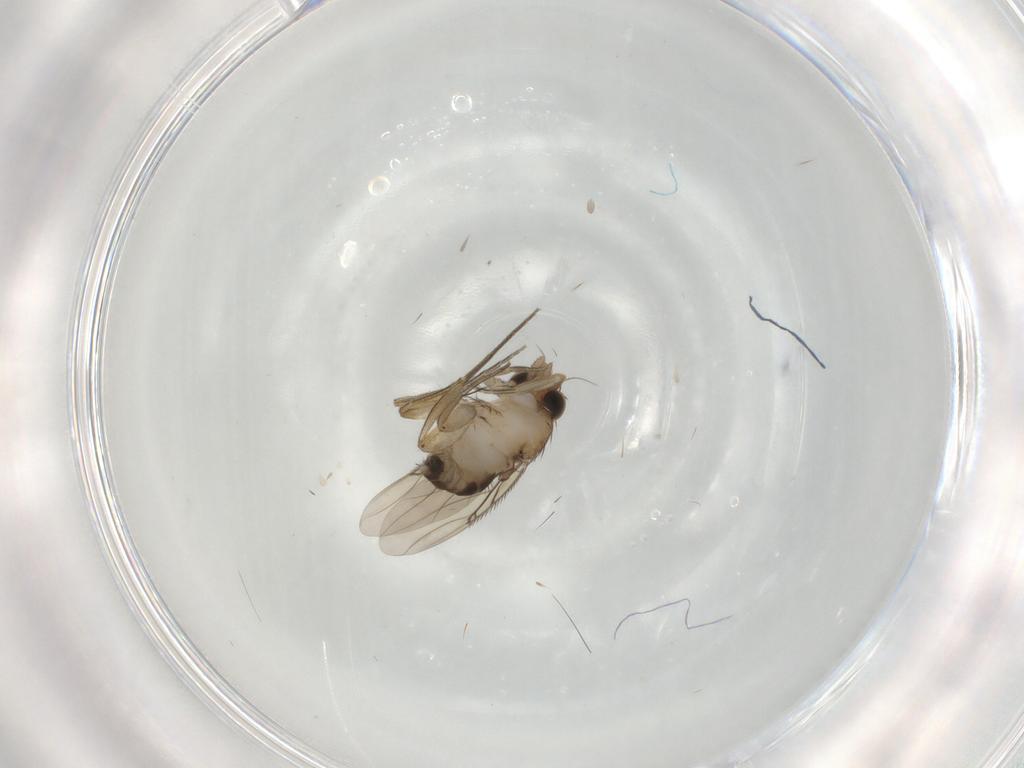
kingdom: Animalia
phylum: Arthropoda
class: Insecta
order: Diptera
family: Phoridae
